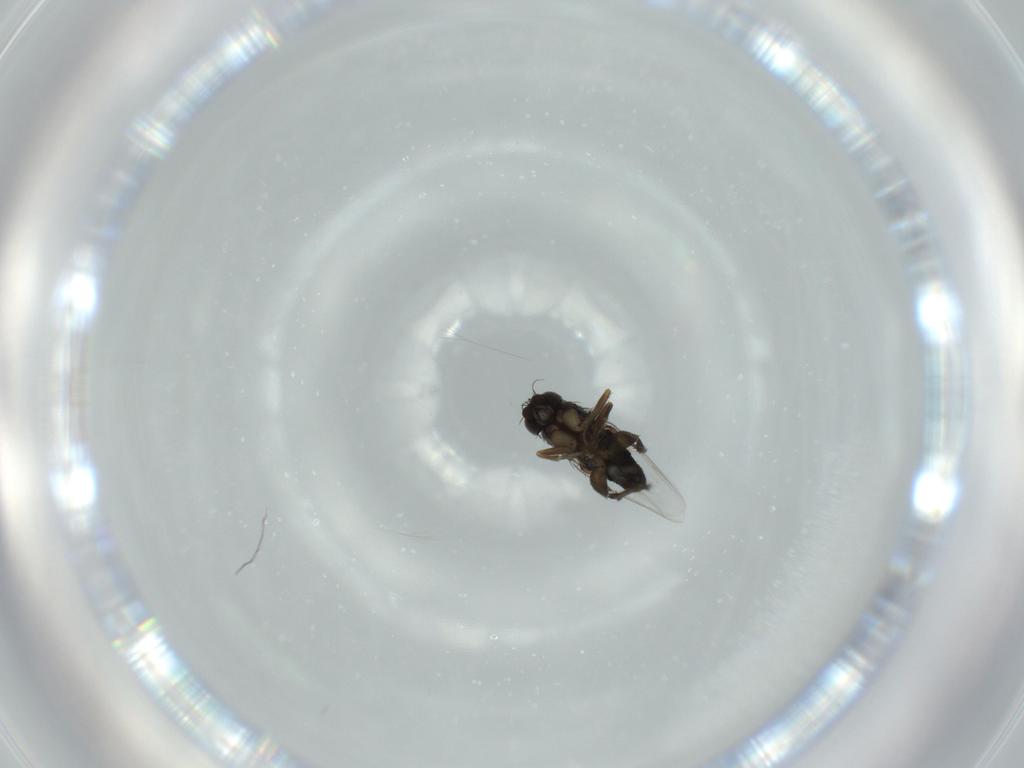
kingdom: Animalia
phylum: Arthropoda
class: Insecta
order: Diptera
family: Phoridae
